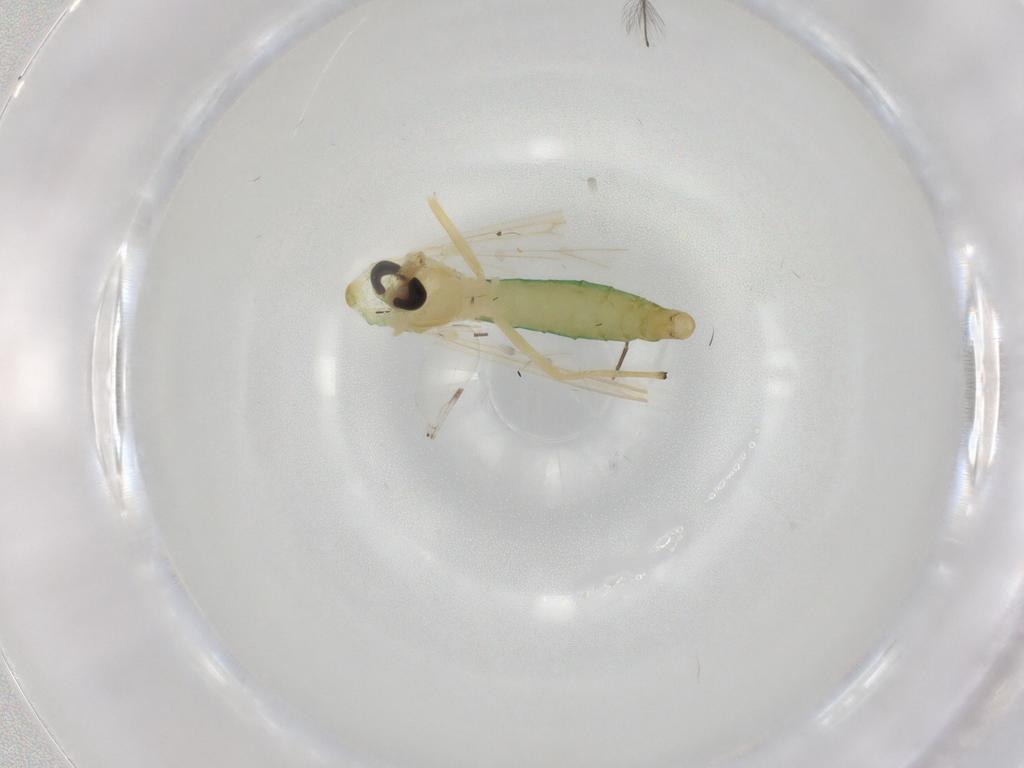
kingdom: Animalia
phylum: Arthropoda
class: Insecta
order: Diptera
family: Chironomidae
